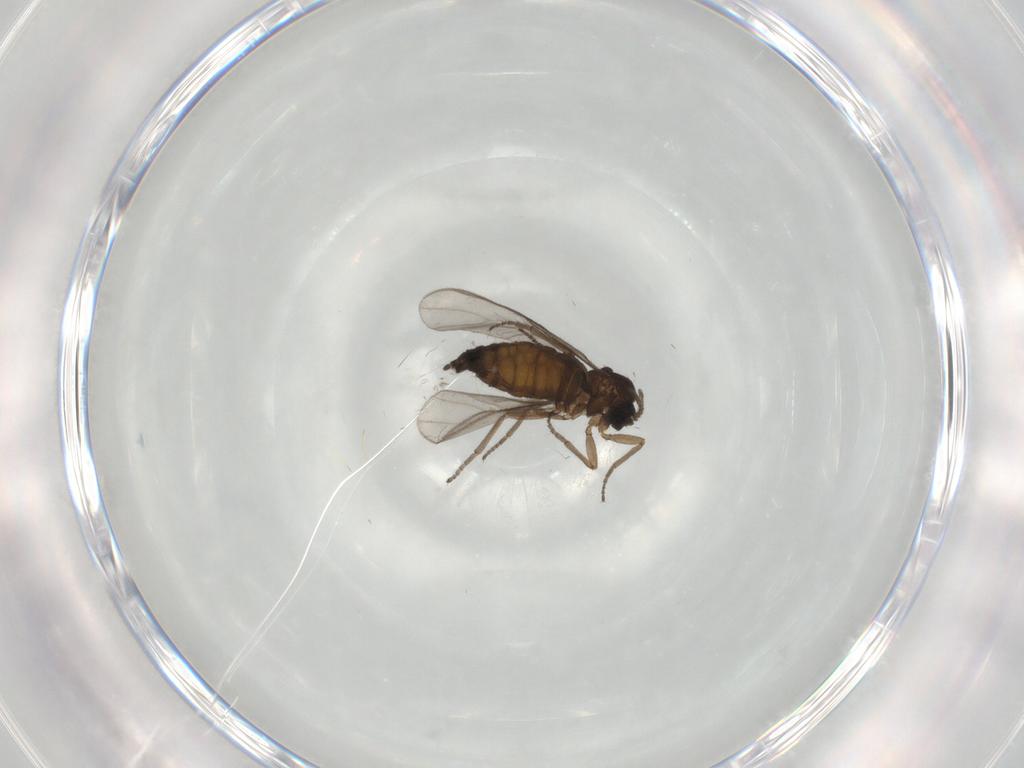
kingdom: Animalia
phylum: Arthropoda
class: Insecta
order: Diptera
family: Sciaridae
